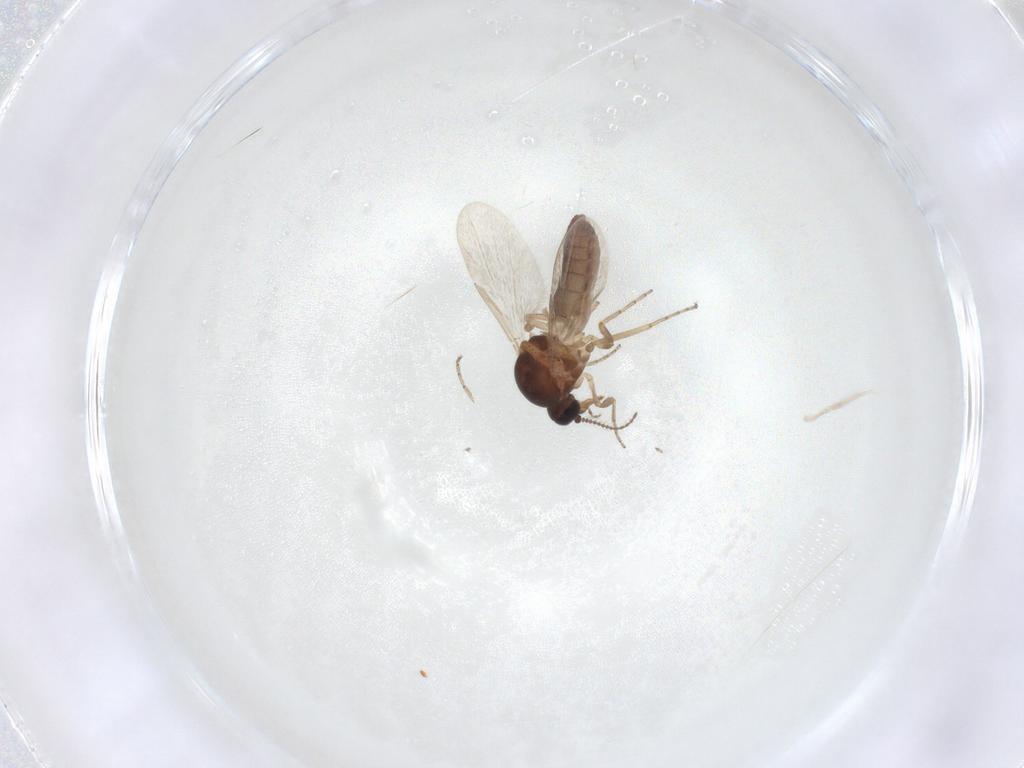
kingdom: Animalia
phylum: Arthropoda
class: Insecta
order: Diptera
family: Ceratopogonidae
